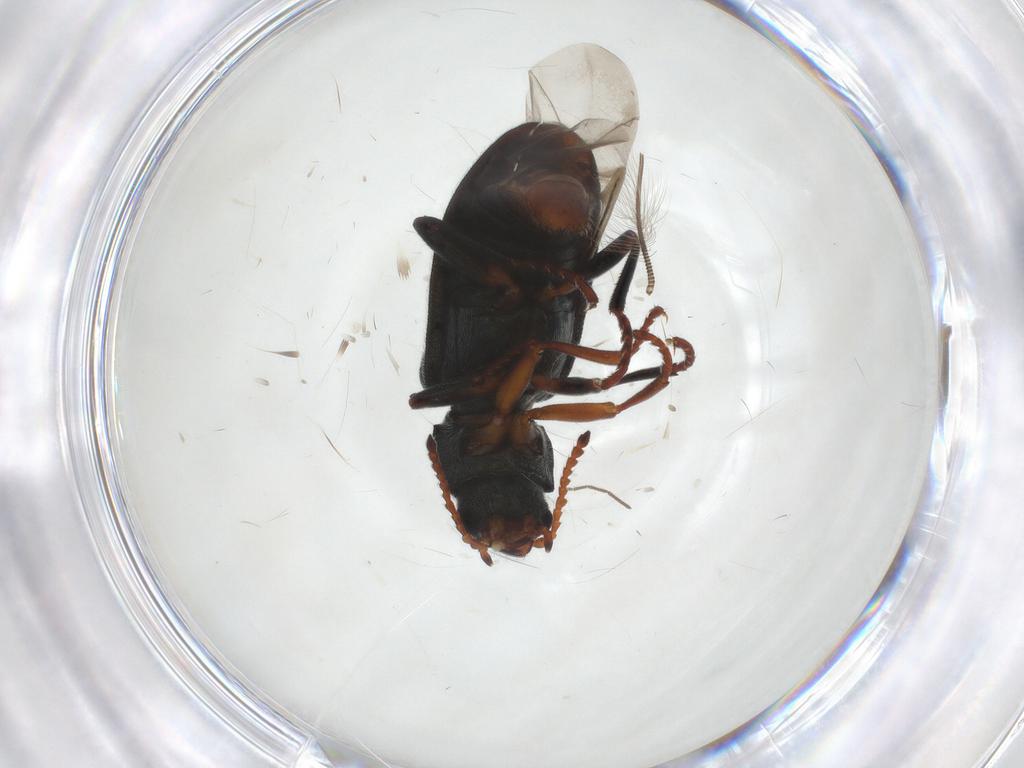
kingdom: Animalia
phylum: Arthropoda
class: Insecta
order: Coleoptera
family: Melyridae
